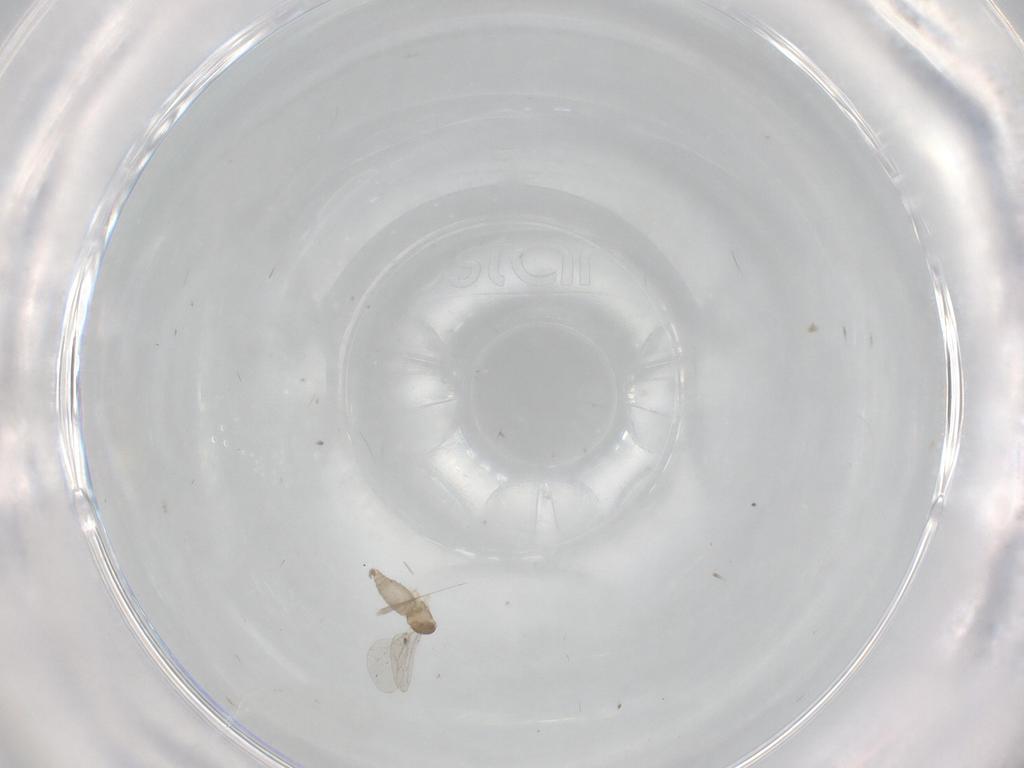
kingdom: Animalia
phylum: Arthropoda
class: Insecta
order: Diptera
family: Cecidomyiidae
